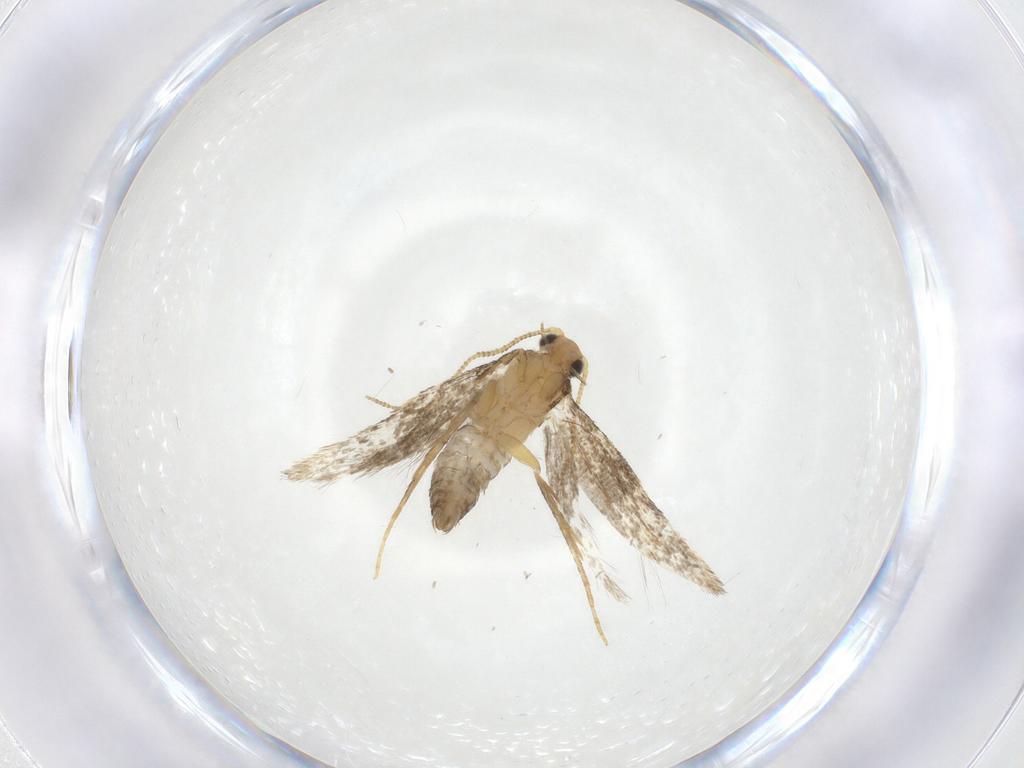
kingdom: Animalia
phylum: Arthropoda
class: Insecta
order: Lepidoptera
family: Tineidae
